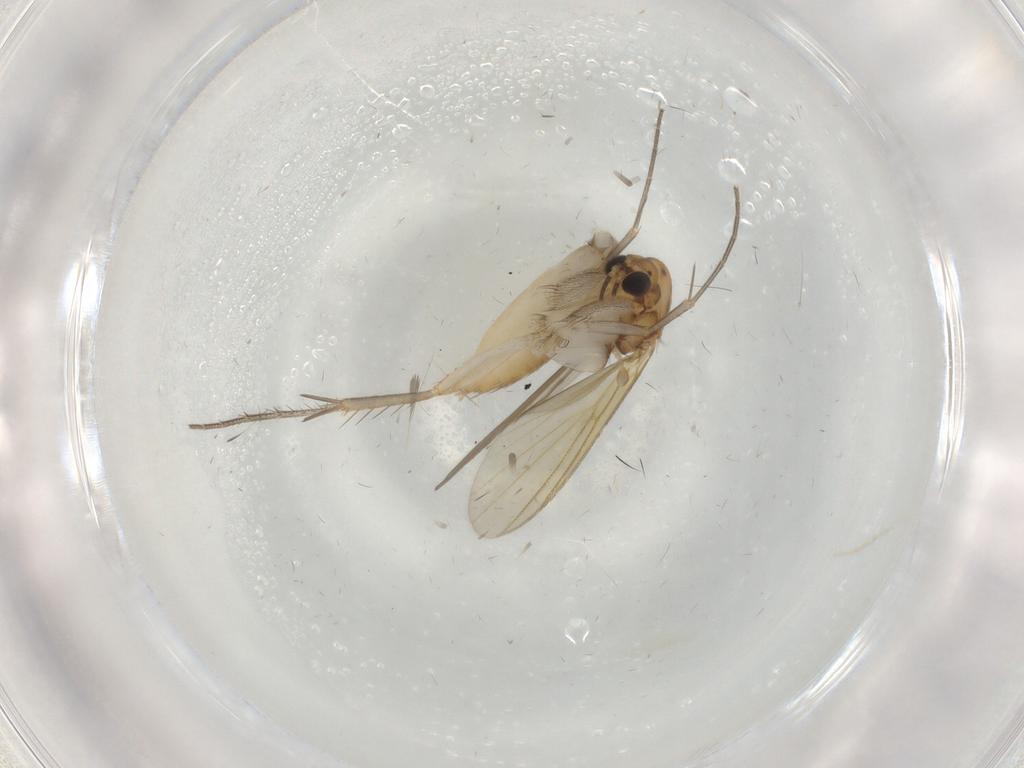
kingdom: Animalia
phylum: Arthropoda
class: Insecta
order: Diptera
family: Mycetophilidae
